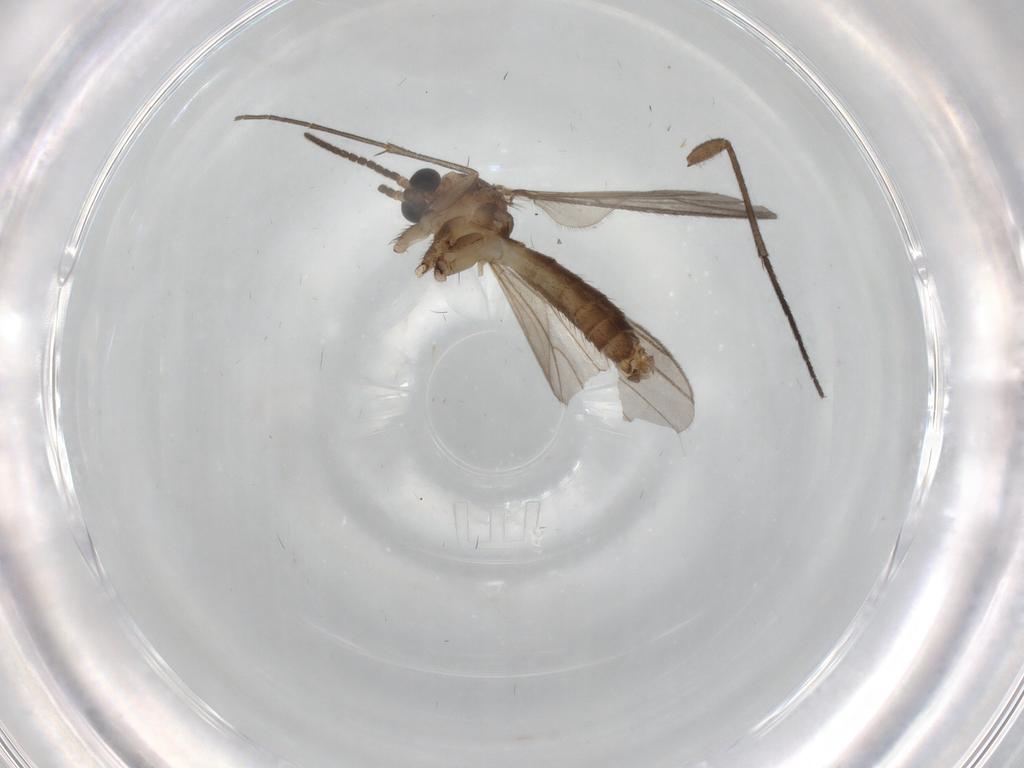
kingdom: Animalia
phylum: Arthropoda
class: Insecta
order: Diptera
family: Sciaridae
